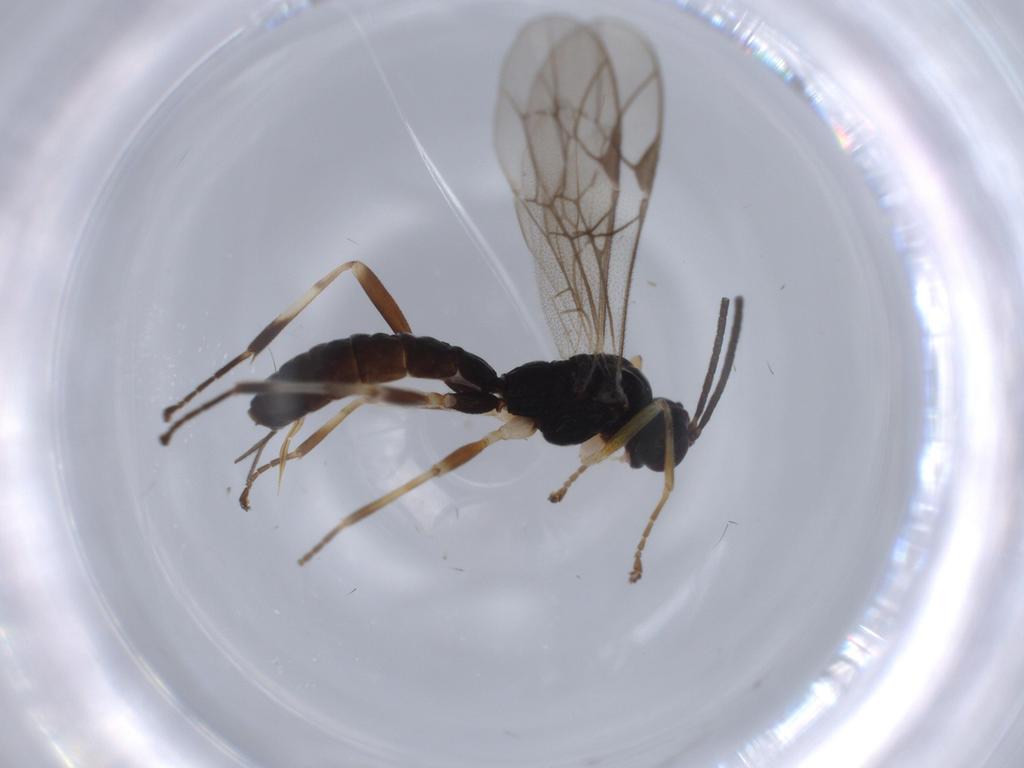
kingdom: Animalia
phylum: Arthropoda
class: Insecta
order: Hymenoptera
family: Ichneumonidae
